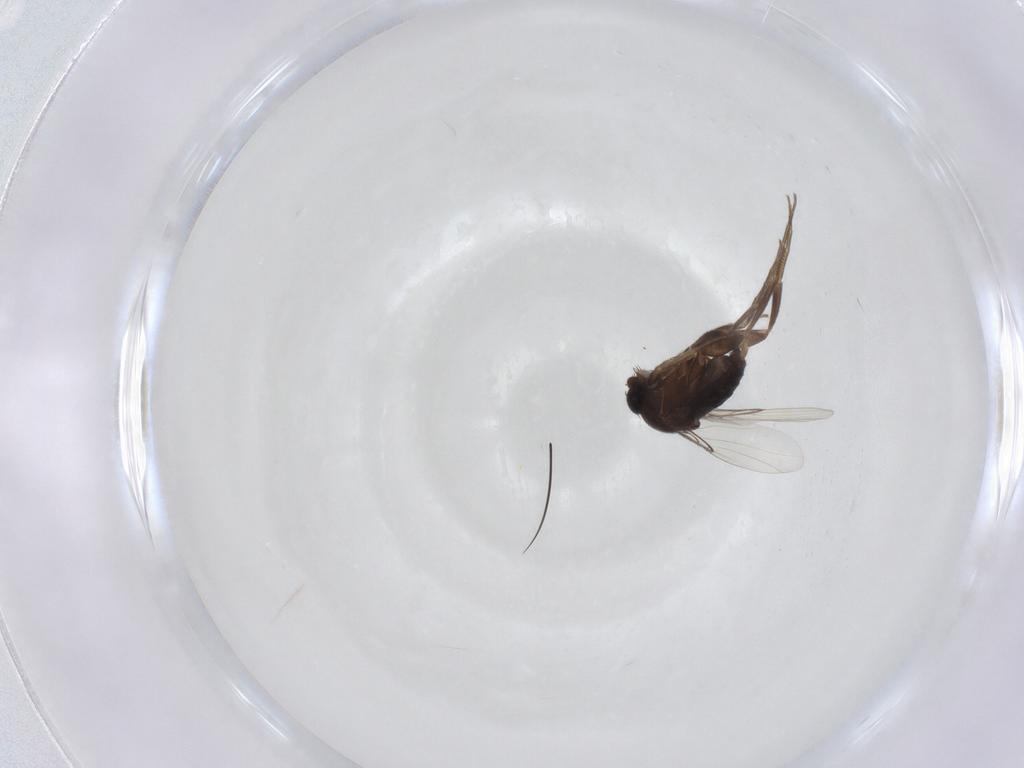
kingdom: Animalia
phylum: Arthropoda
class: Insecta
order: Diptera
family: Phoridae
